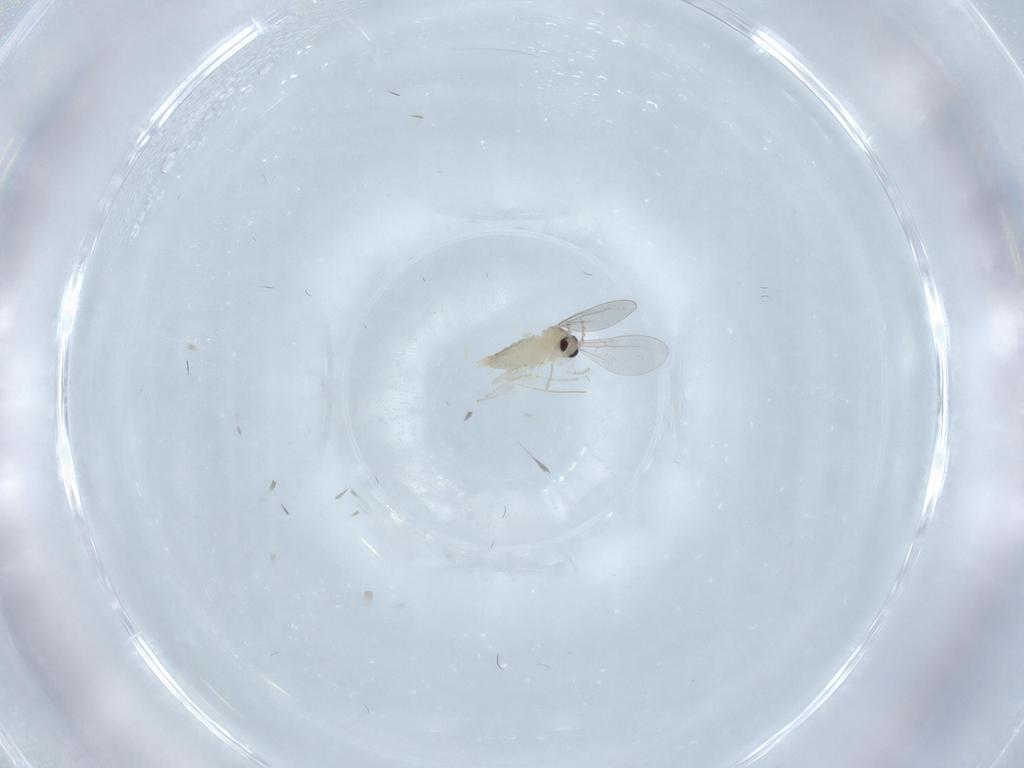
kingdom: Animalia
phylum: Arthropoda
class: Insecta
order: Diptera
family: Cecidomyiidae
